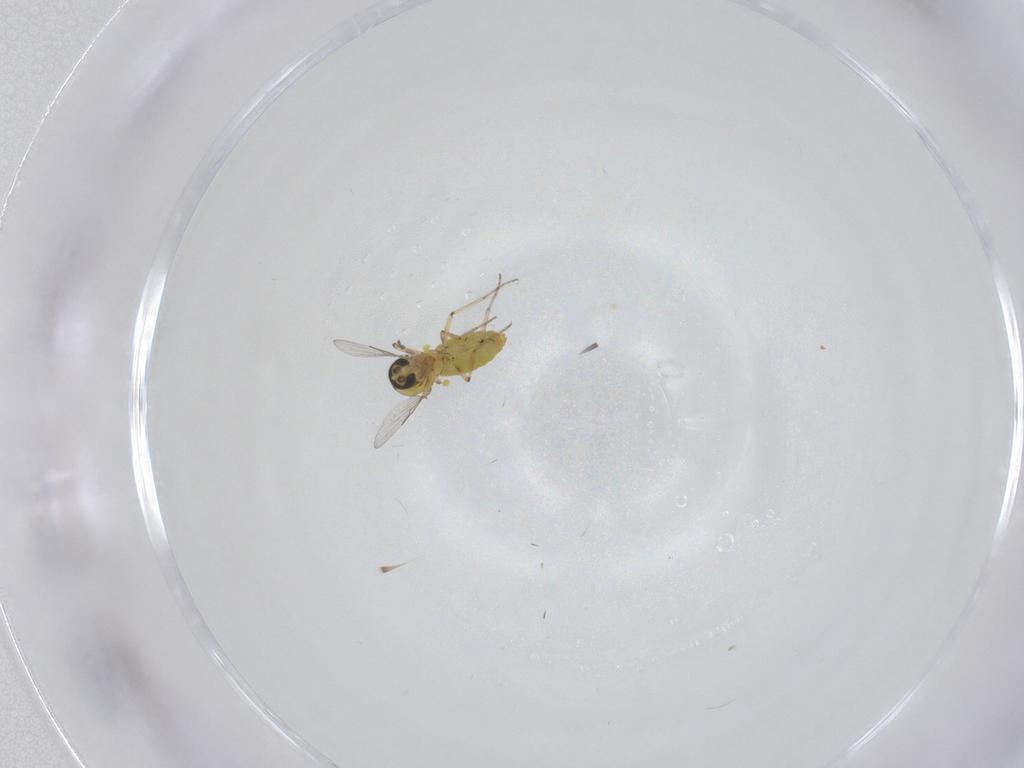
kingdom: Animalia
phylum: Arthropoda
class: Insecta
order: Diptera
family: Ceratopogonidae
